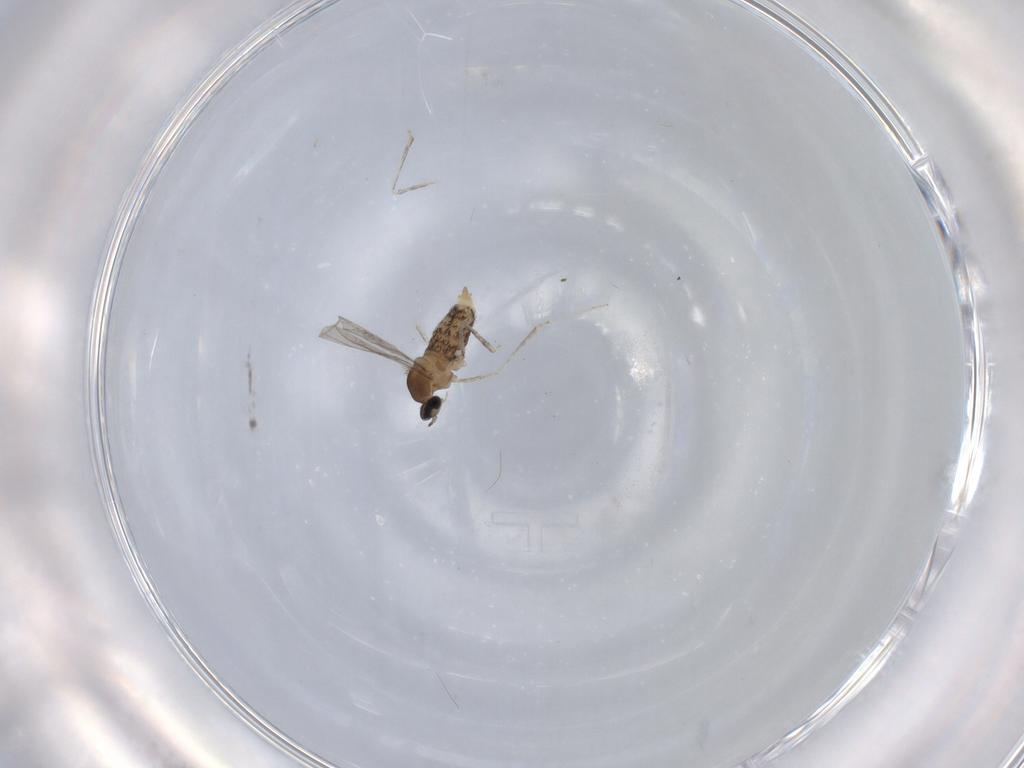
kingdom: Animalia
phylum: Arthropoda
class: Insecta
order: Diptera
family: Cecidomyiidae
